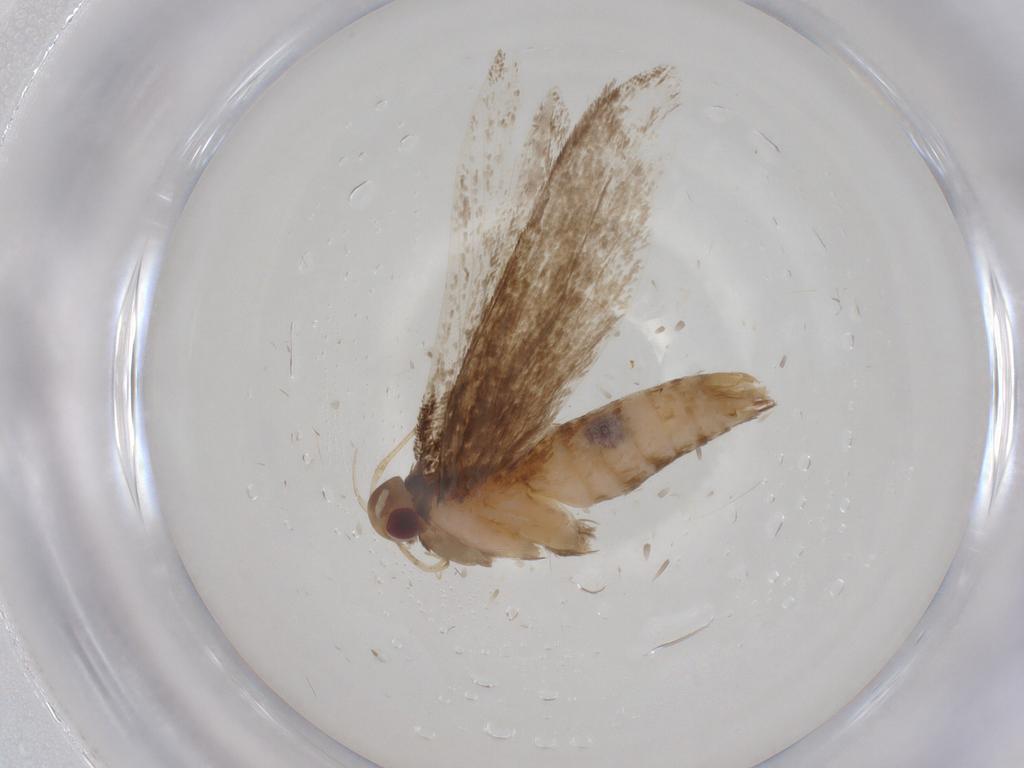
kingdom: Animalia
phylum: Arthropoda
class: Insecta
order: Lepidoptera
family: Gelechiidae
